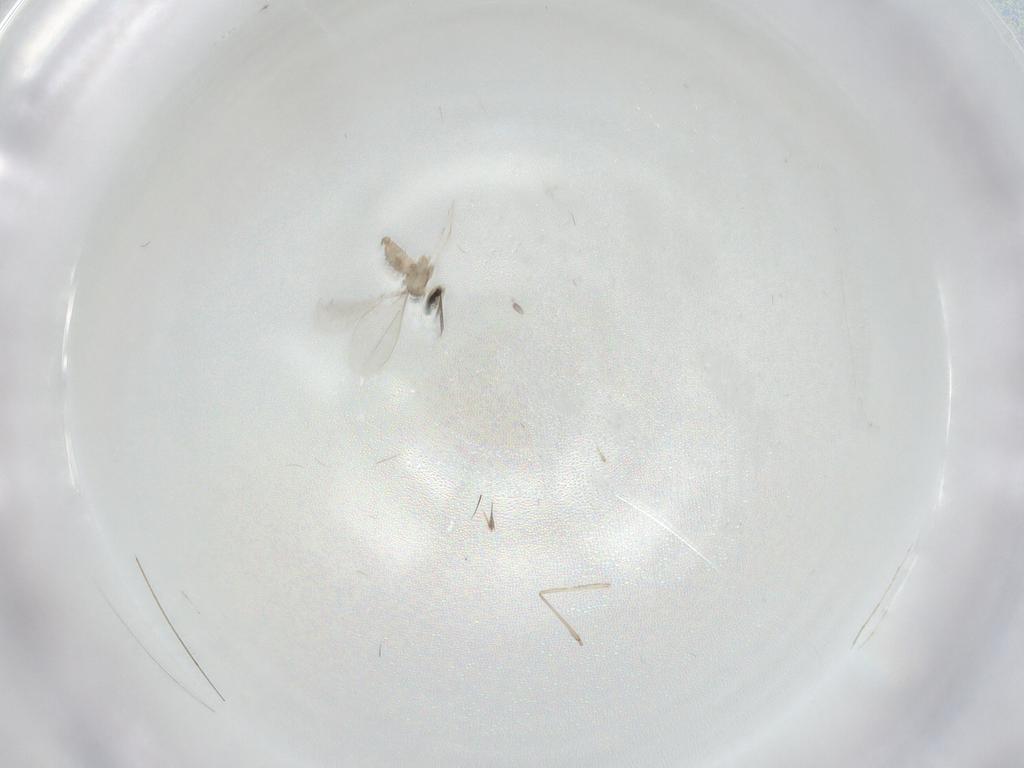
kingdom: Animalia
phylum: Arthropoda
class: Insecta
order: Diptera
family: Chironomidae
